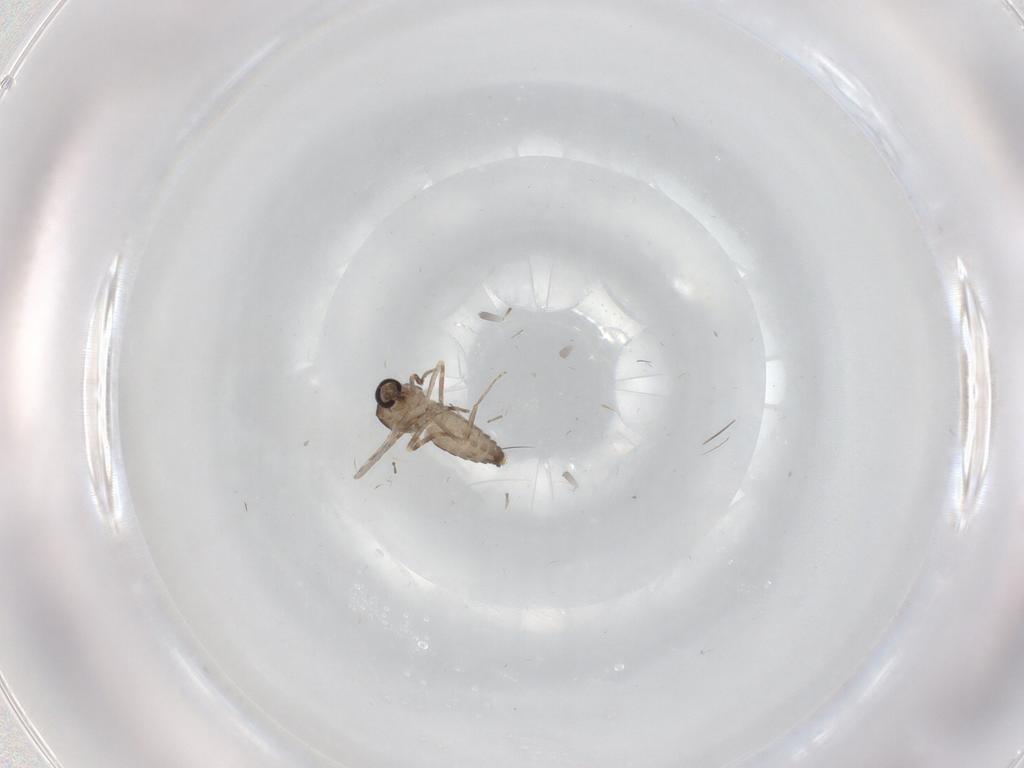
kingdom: Animalia
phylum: Arthropoda
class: Insecta
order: Diptera
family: Ceratopogonidae
